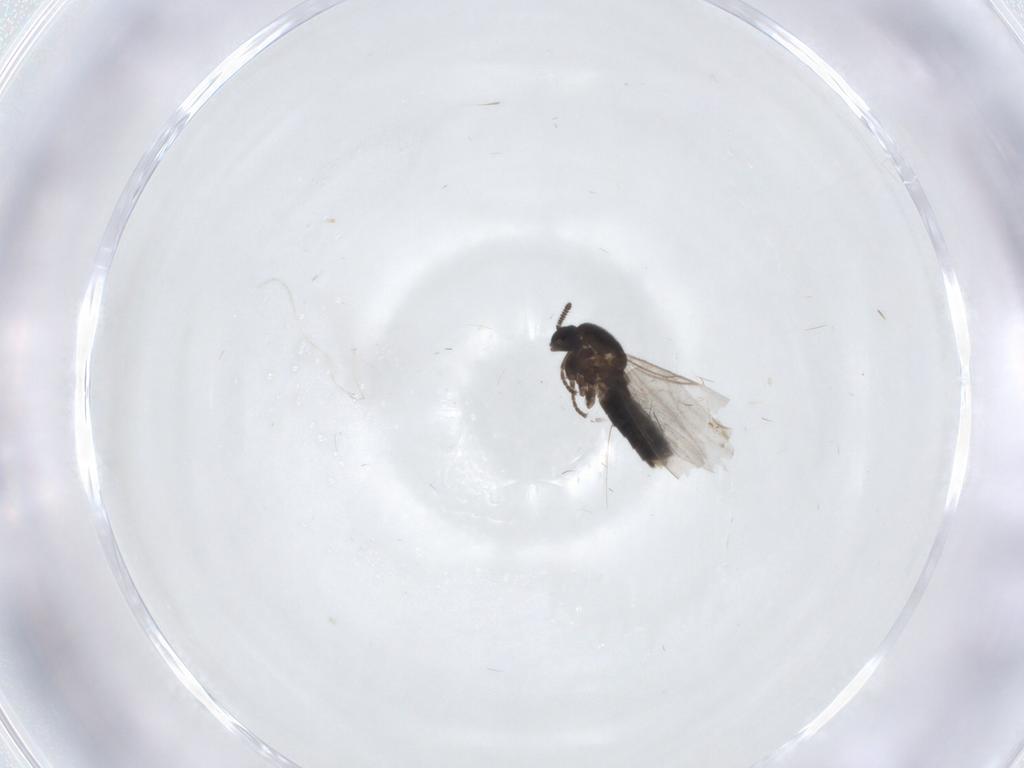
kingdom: Animalia
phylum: Arthropoda
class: Insecta
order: Diptera
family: Scatopsidae
